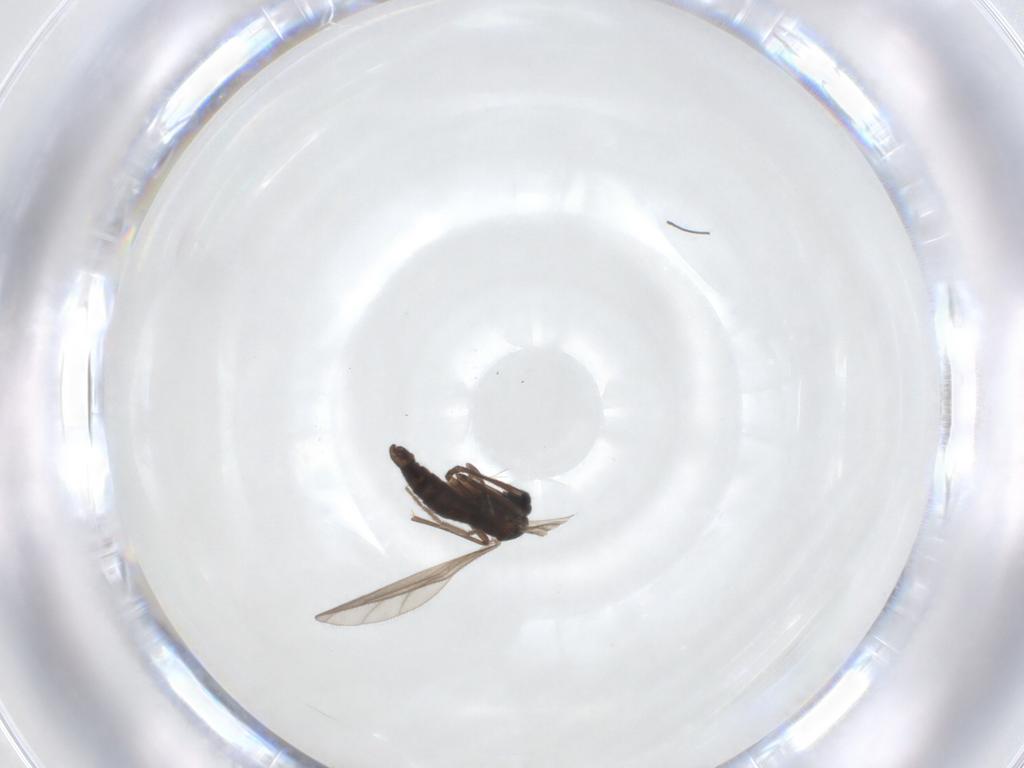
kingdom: Animalia
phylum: Arthropoda
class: Insecta
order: Diptera
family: Sciaridae
